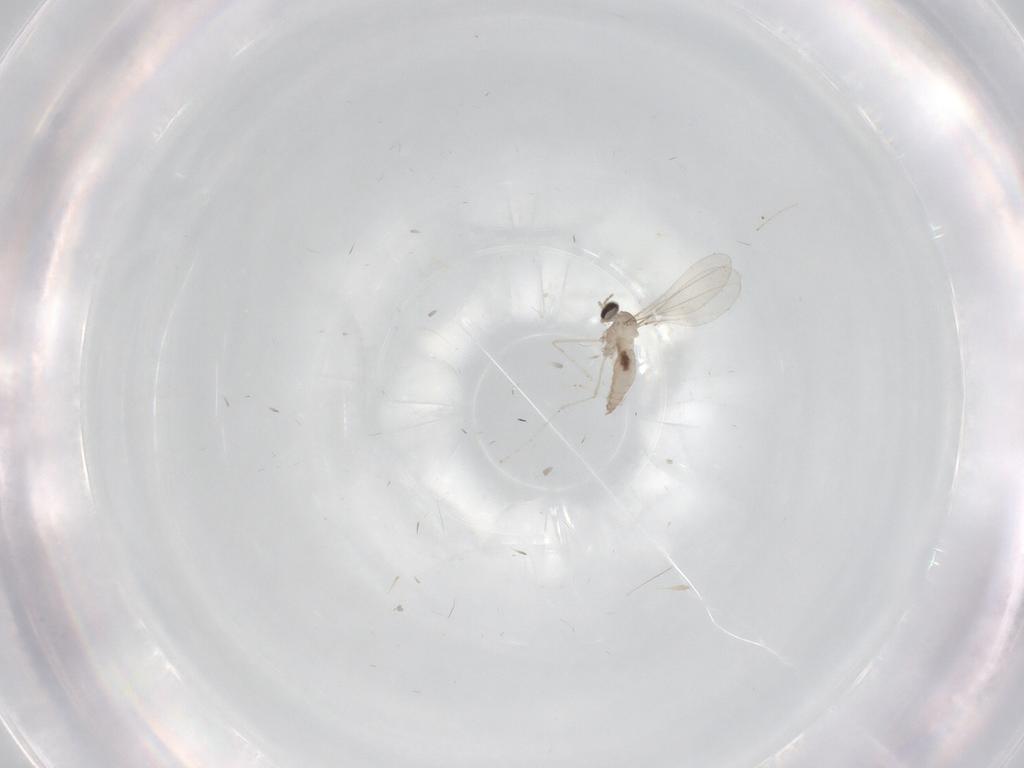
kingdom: Animalia
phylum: Arthropoda
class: Insecta
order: Diptera
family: Cecidomyiidae
